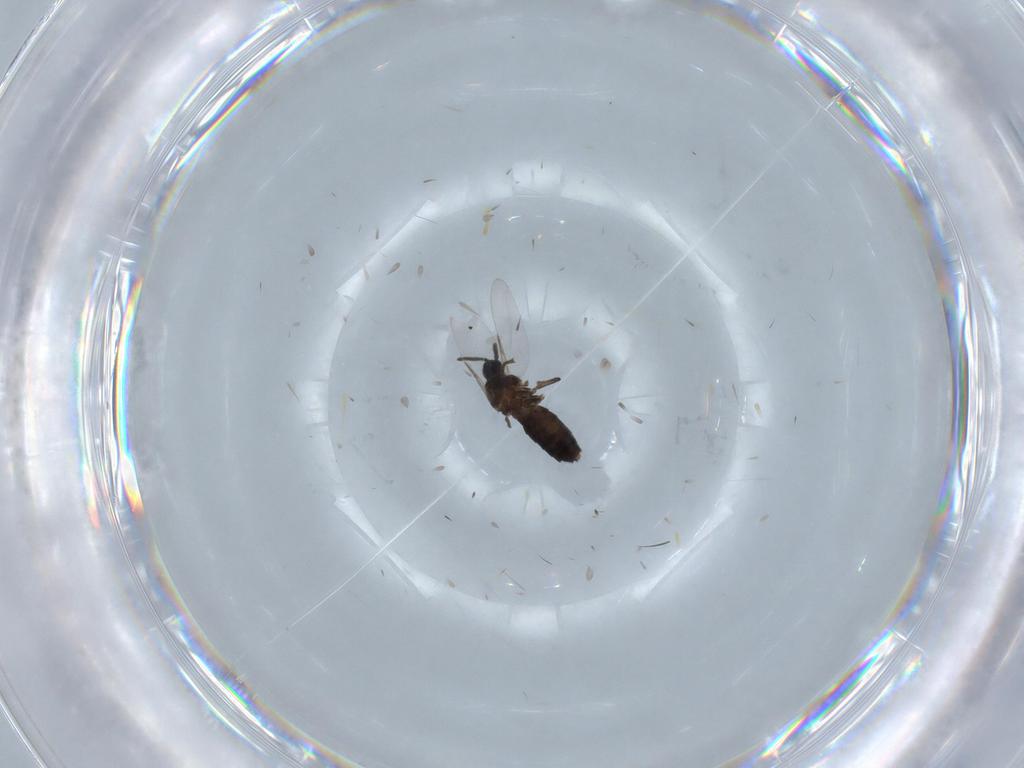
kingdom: Animalia
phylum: Arthropoda
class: Insecta
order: Diptera
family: Scatopsidae
